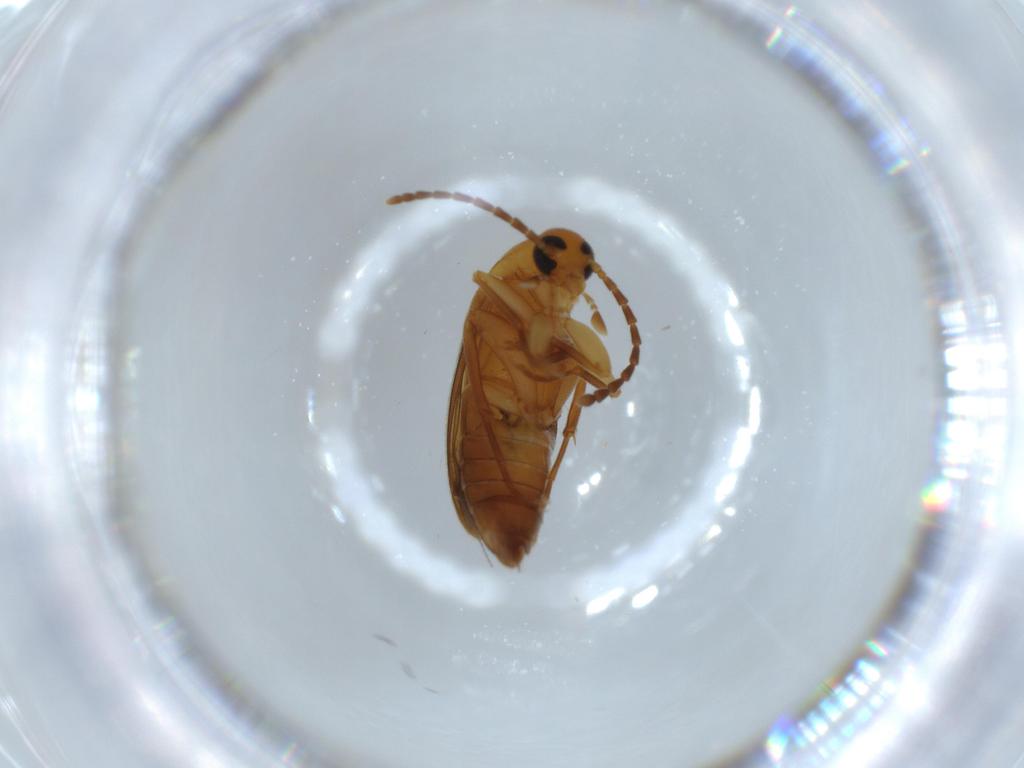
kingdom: Animalia
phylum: Arthropoda
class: Insecta
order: Coleoptera
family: Scraptiidae
